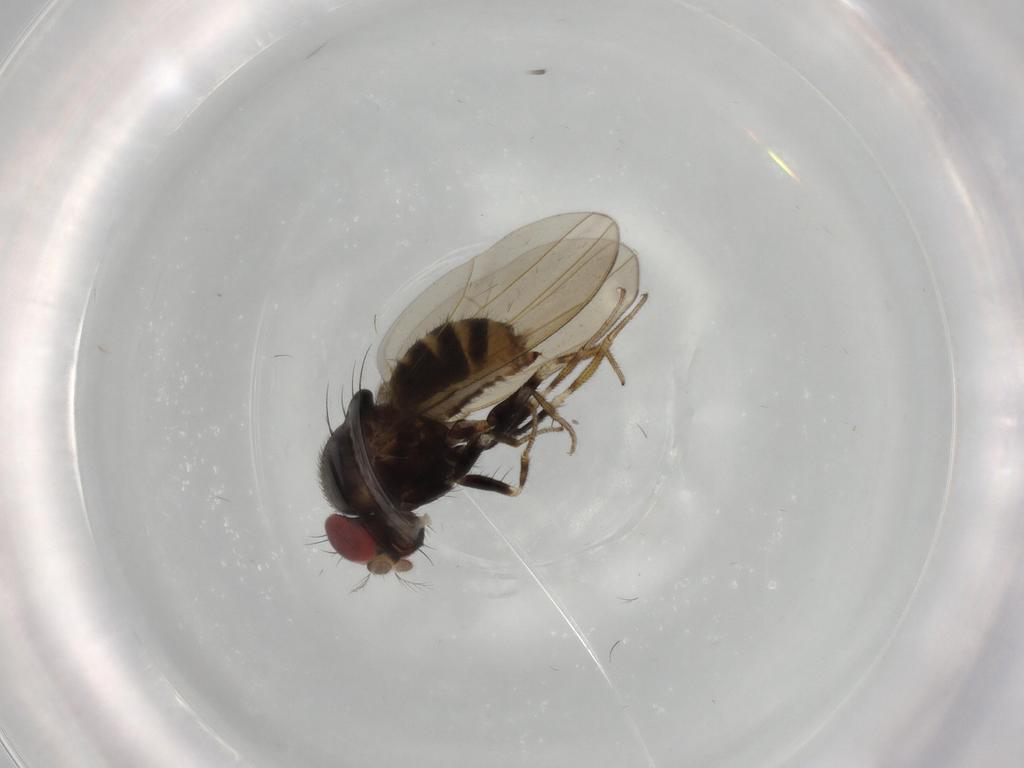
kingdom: Animalia
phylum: Arthropoda
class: Insecta
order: Diptera
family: Drosophilidae
